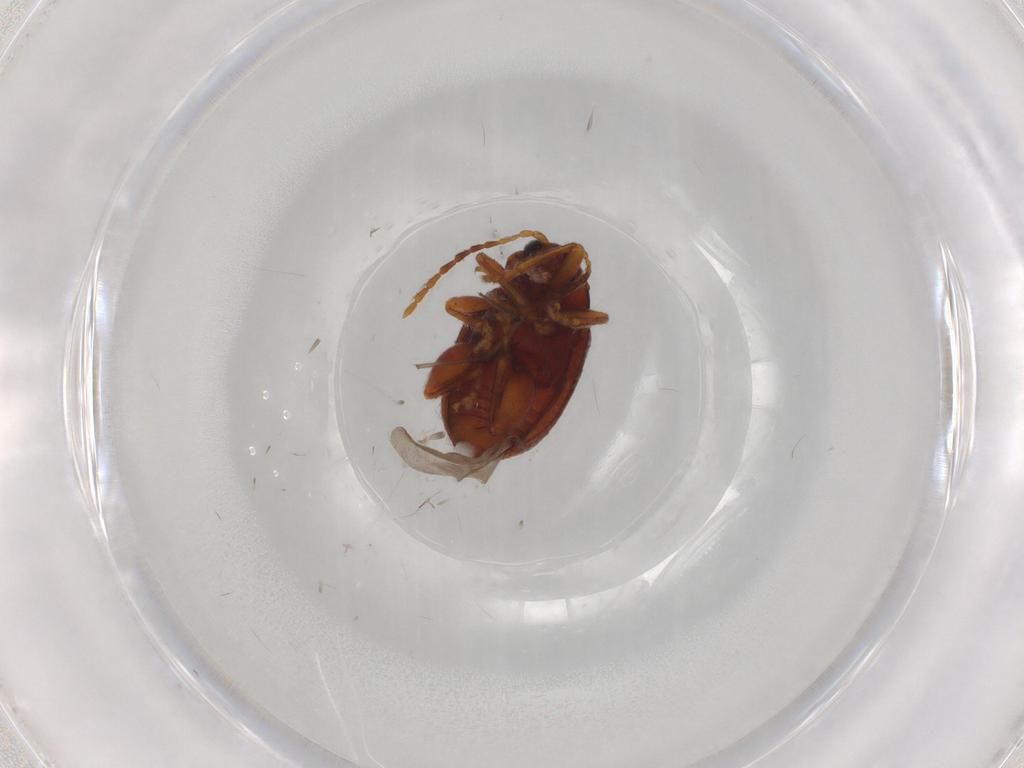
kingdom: Animalia
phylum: Arthropoda
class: Insecta
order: Coleoptera
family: Chrysomelidae
